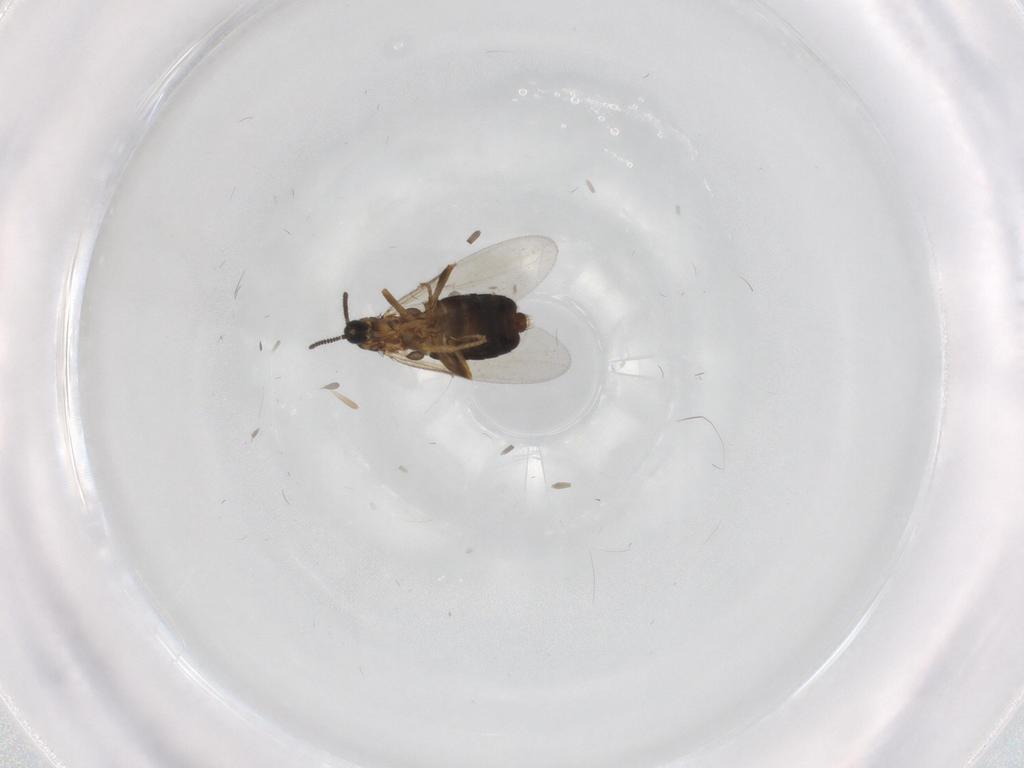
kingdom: Animalia
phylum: Arthropoda
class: Insecta
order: Diptera
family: Scatopsidae
